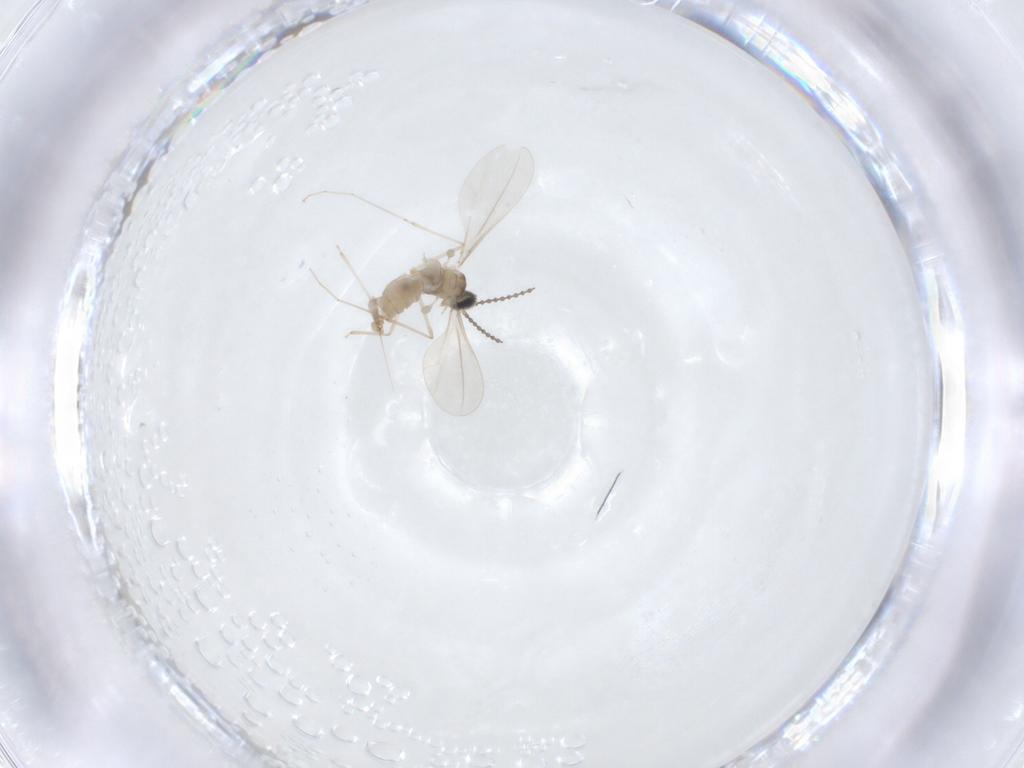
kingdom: Animalia
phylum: Arthropoda
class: Insecta
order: Diptera
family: Cecidomyiidae
